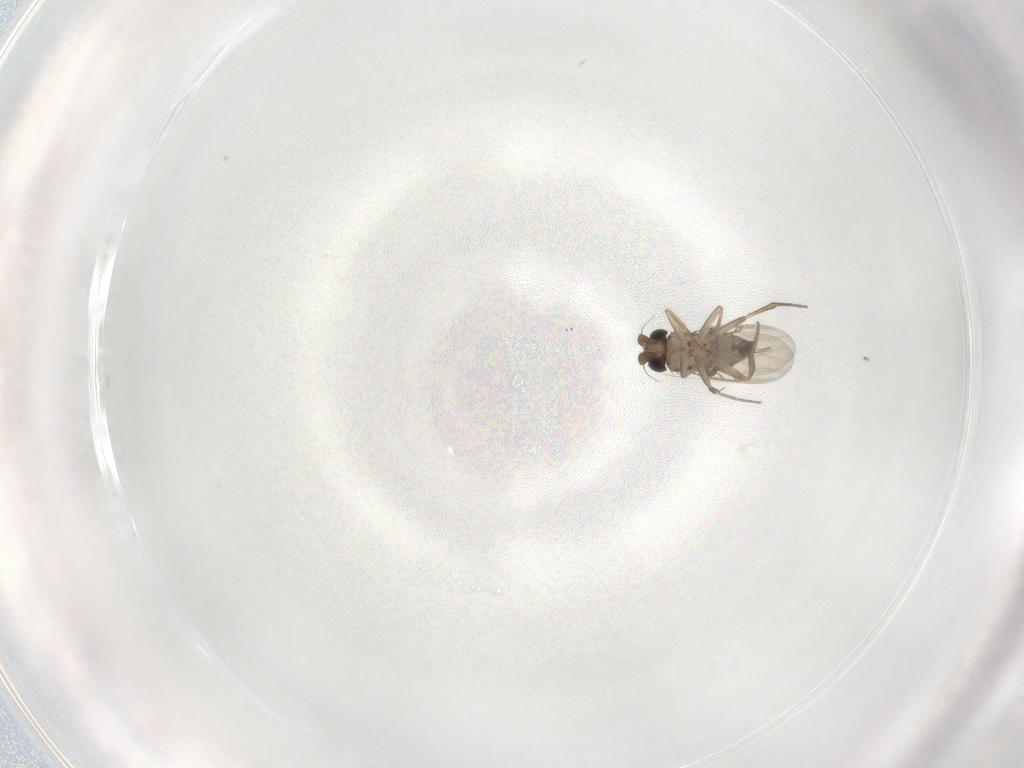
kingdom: Animalia
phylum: Arthropoda
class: Insecta
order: Diptera
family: Phoridae
